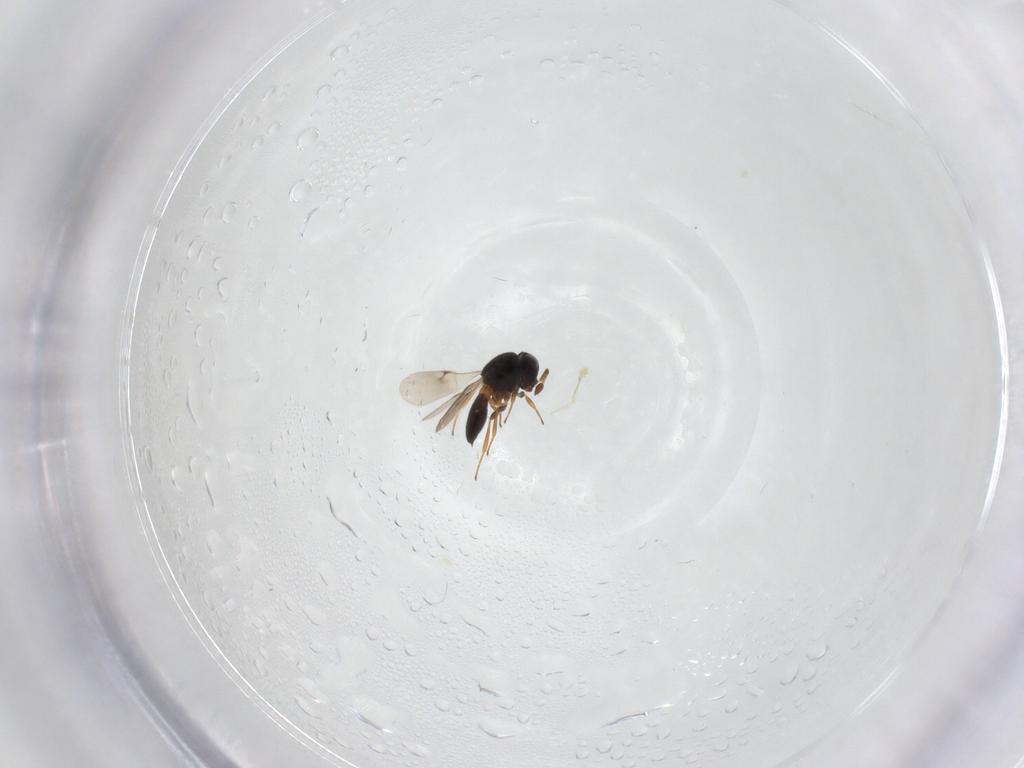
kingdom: Animalia
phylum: Arthropoda
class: Insecta
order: Hymenoptera
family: Scelionidae
